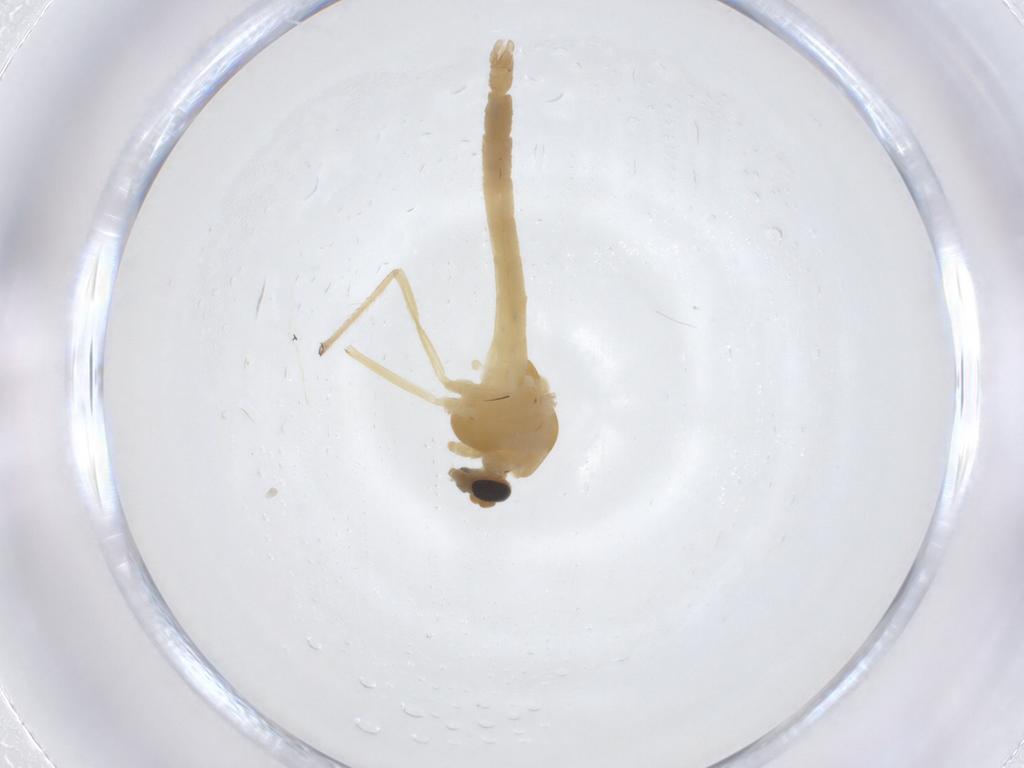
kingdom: Animalia
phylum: Arthropoda
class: Insecta
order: Diptera
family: Chironomidae
